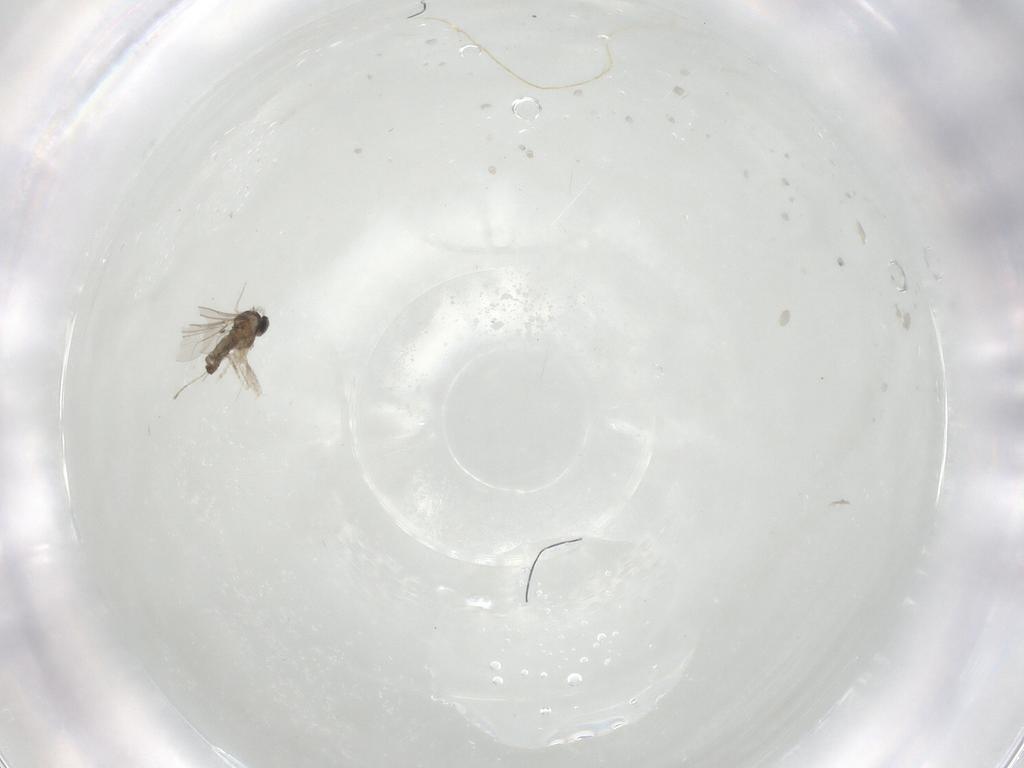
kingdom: Animalia
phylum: Arthropoda
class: Insecta
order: Diptera
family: Cecidomyiidae
